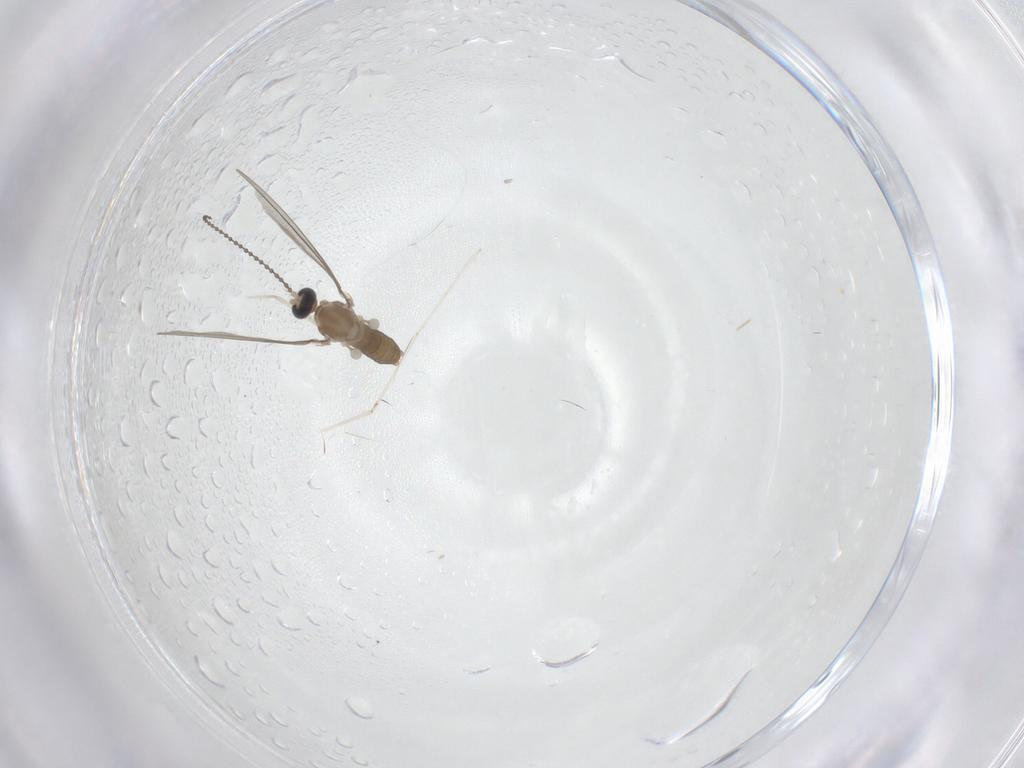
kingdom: Animalia
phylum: Arthropoda
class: Insecta
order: Diptera
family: Cecidomyiidae
